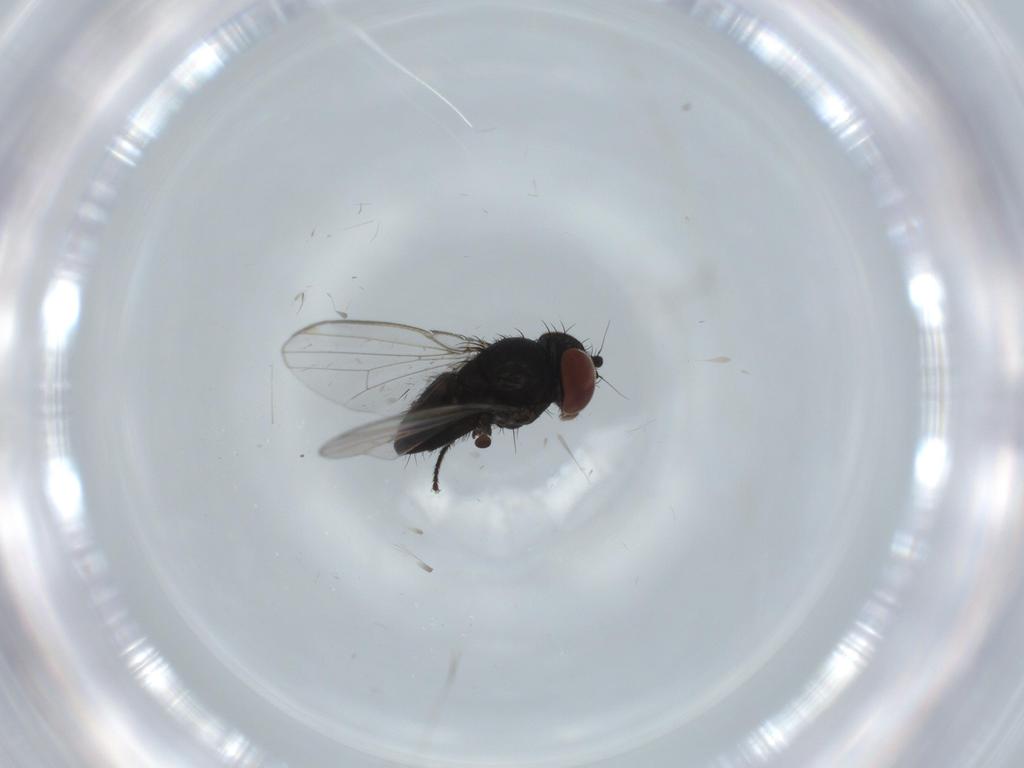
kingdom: Animalia
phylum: Arthropoda
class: Insecta
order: Diptera
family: Milichiidae
